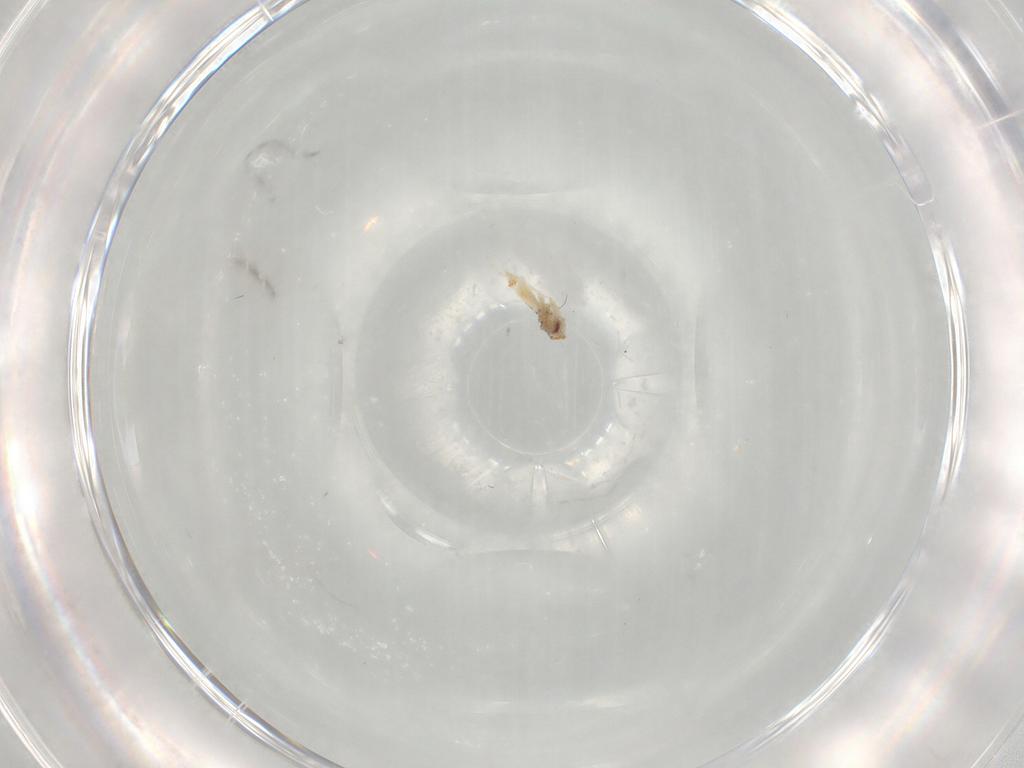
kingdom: Animalia
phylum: Arthropoda
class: Insecta
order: Hemiptera
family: Aleyrodidae
